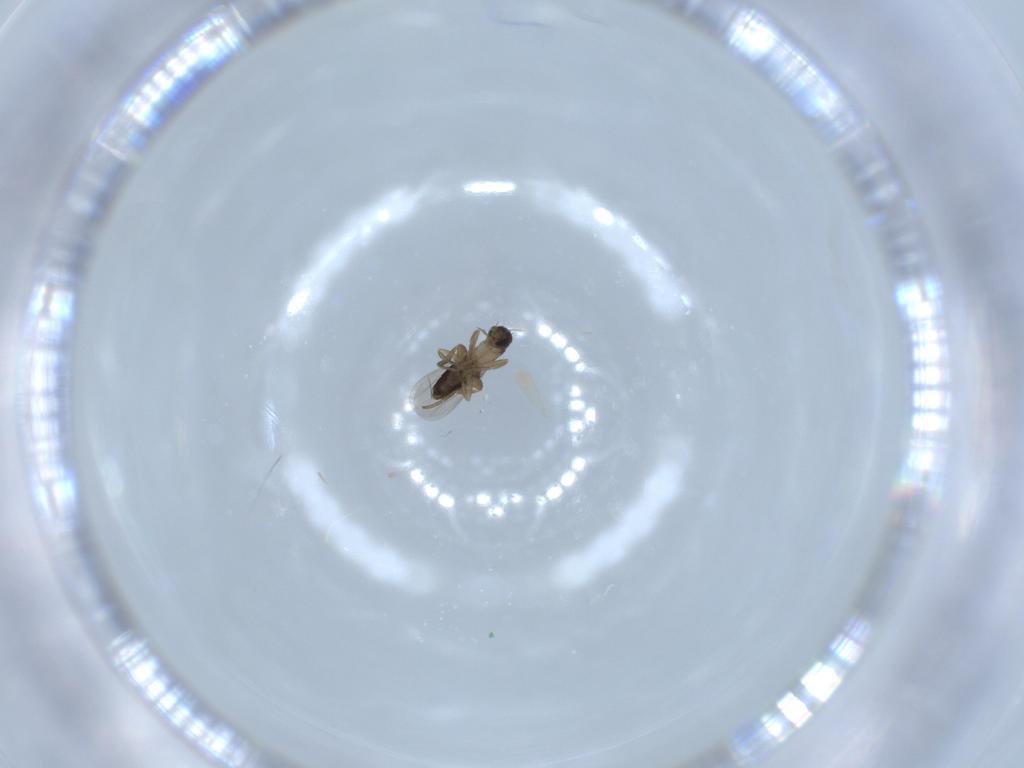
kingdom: Animalia
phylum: Arthropoda
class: Insecta
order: Diptera
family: Phoridae
